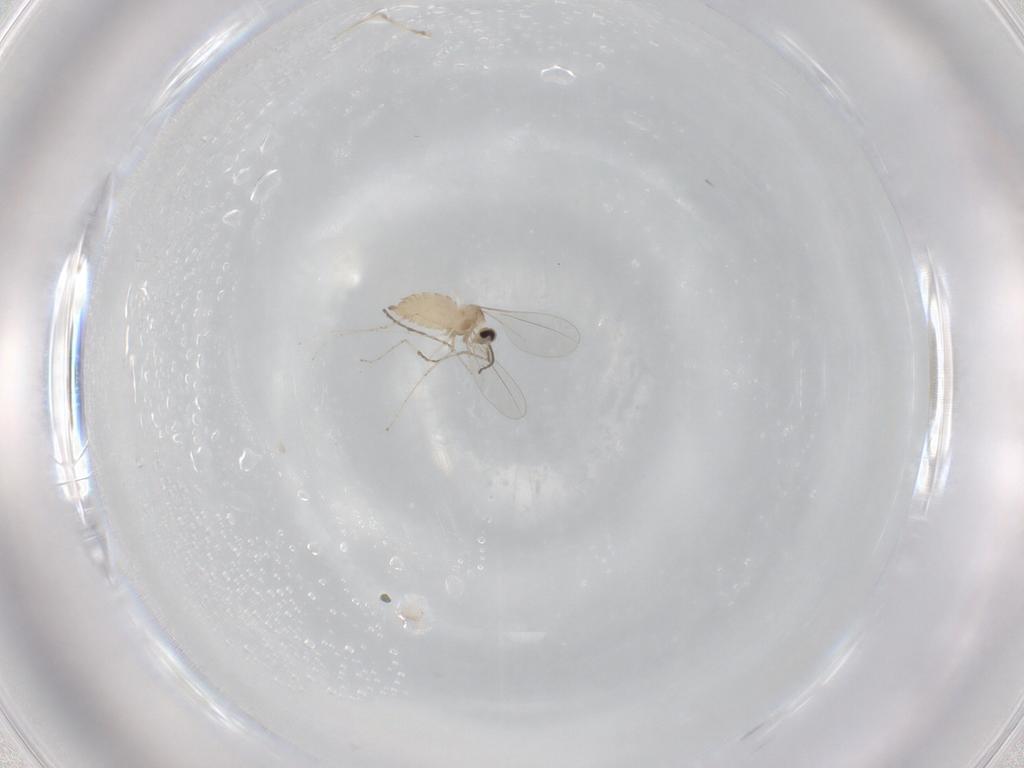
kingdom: Animalia
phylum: Arthropoda
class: Insecta
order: Diptera
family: Cecidomyiidae
